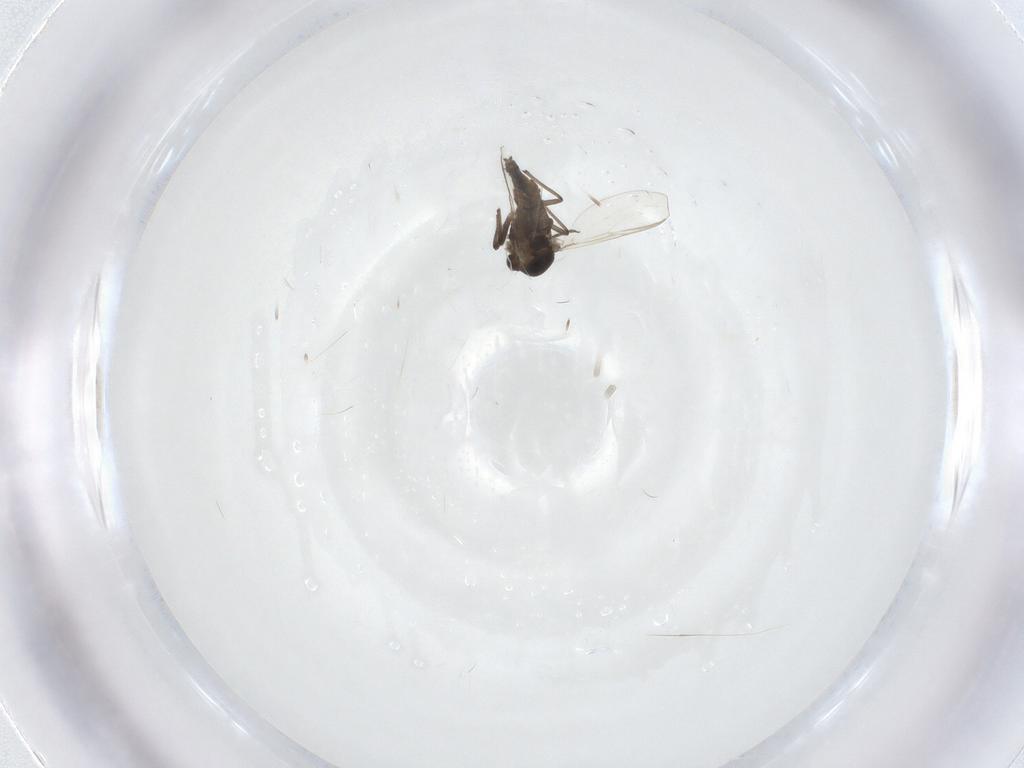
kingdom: Animalia
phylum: Arthropoda
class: Insecta
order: Diptera
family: Chironomidae
